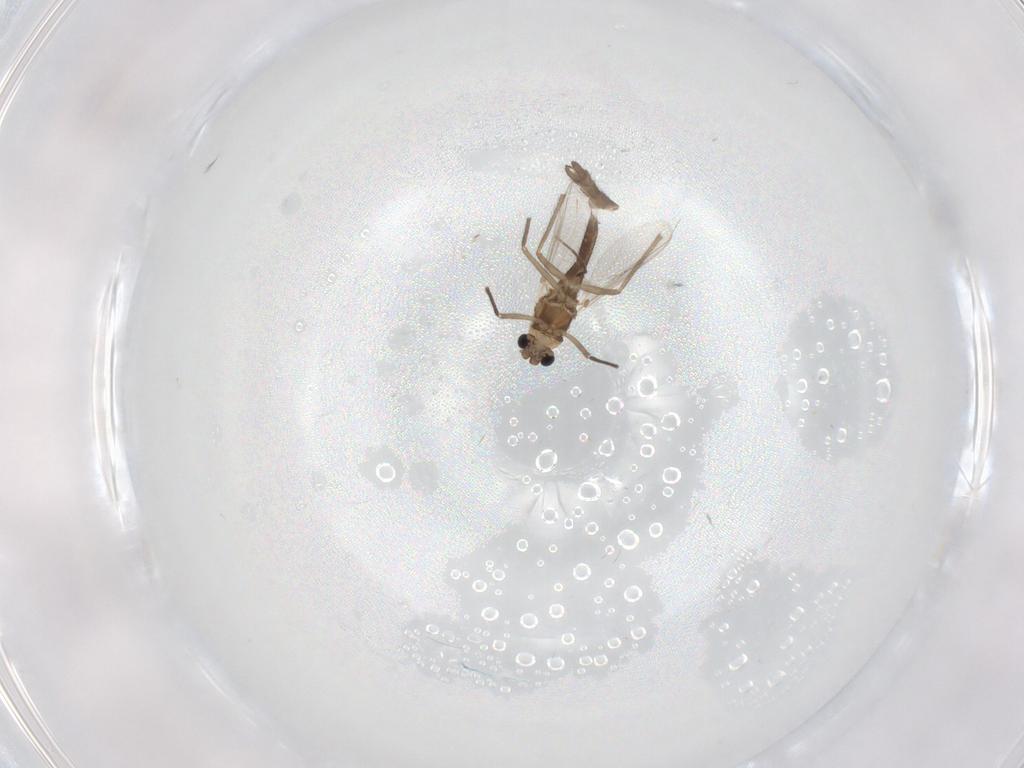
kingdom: Animalia
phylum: Arthropoda
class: Insecta
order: Diptera
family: Chironomidae
